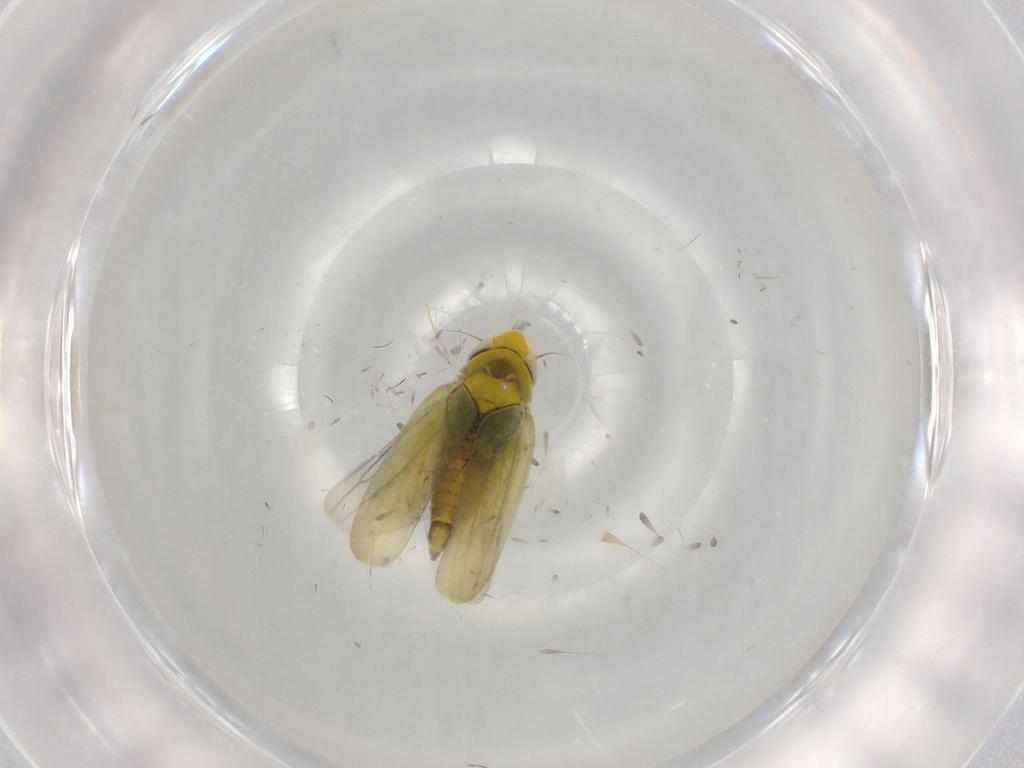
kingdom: Animalia
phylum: Arthropoda
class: Insecta
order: Hemiptera
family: Cicadellidae
